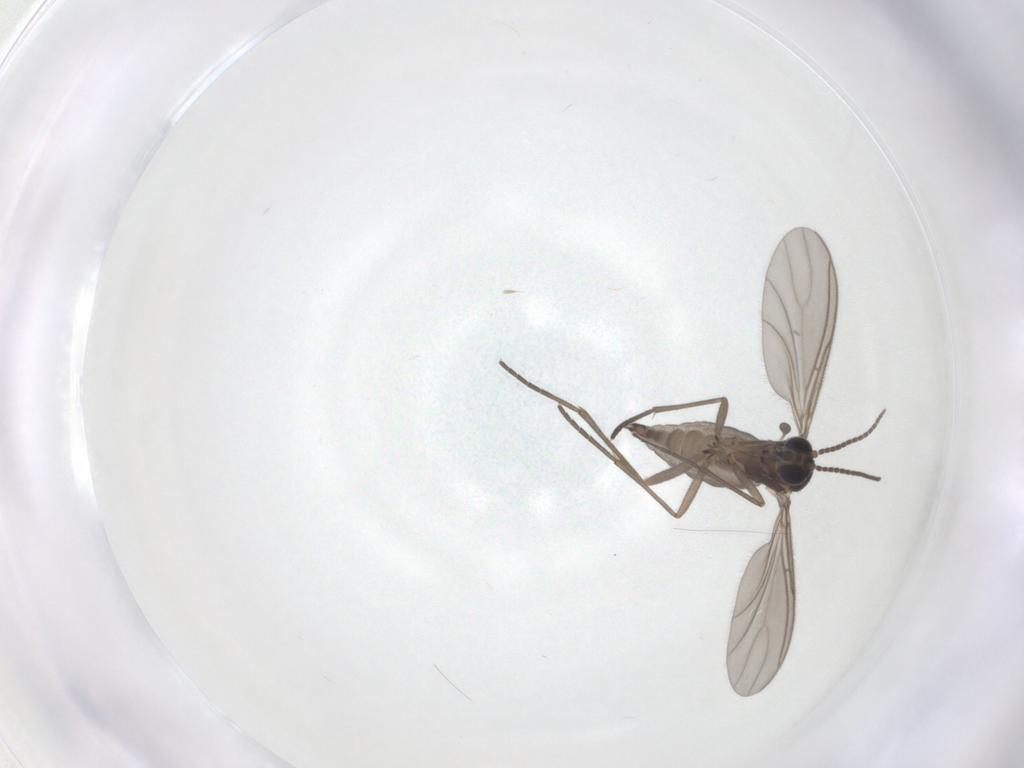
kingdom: Animalia
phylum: Arthropoda
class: Insecta
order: Diptera
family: Sciaridae
